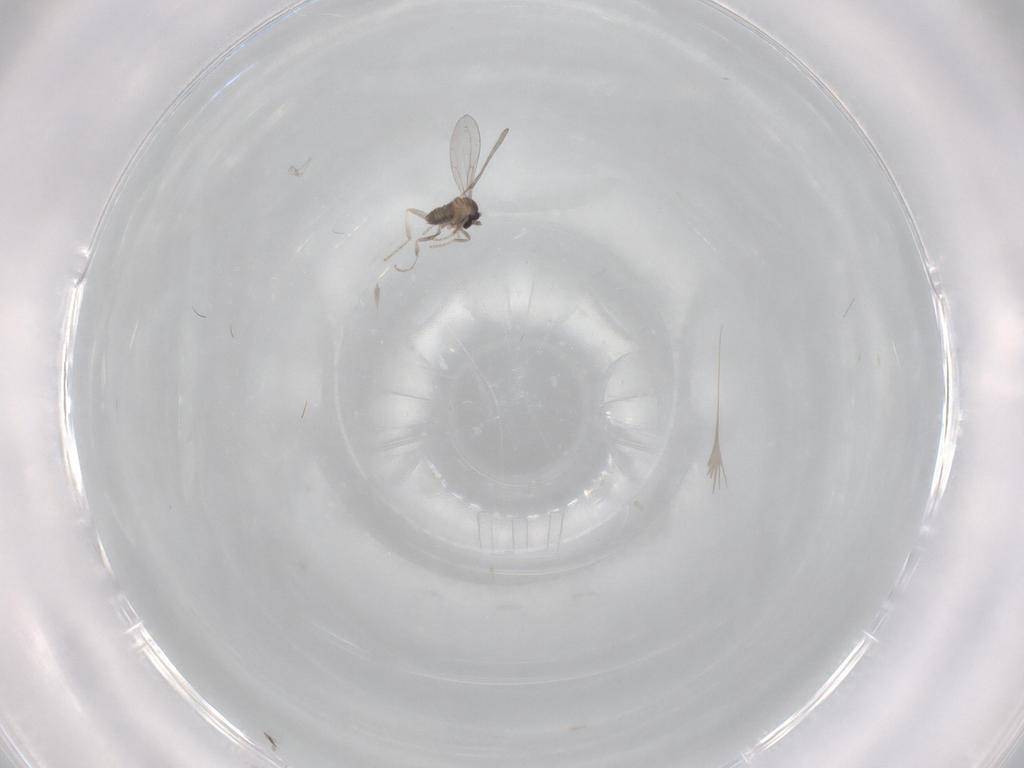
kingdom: Animalia
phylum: Arthropoda
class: Insecta
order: Diptera
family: Cecidomyiidae
